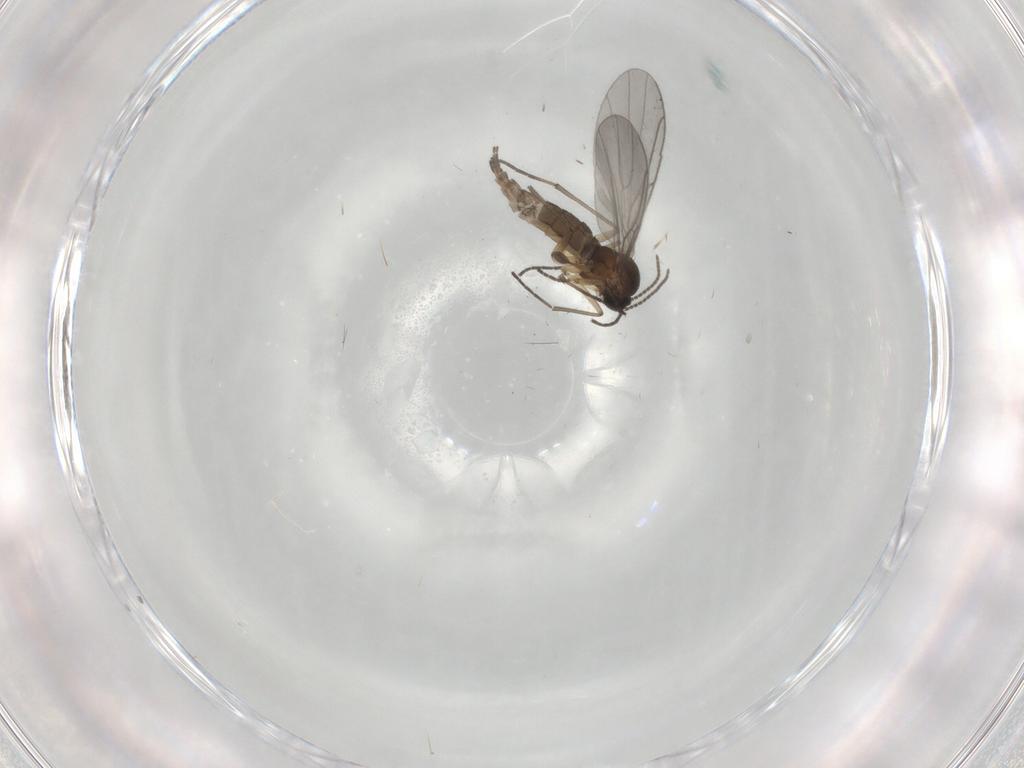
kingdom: Animalia
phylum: Arthropoda
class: Insecta
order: Diptera
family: Sciaridae
